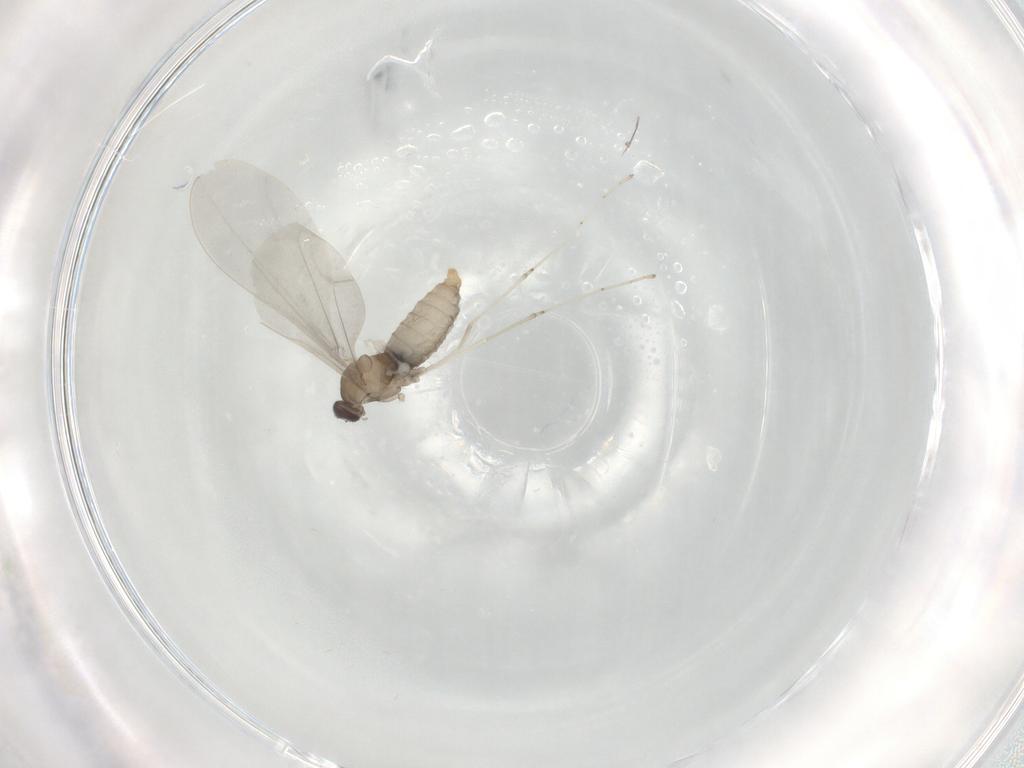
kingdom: Animalia
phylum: Arthropoda
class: Insecta
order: Diptera
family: Cecidomyiidae
